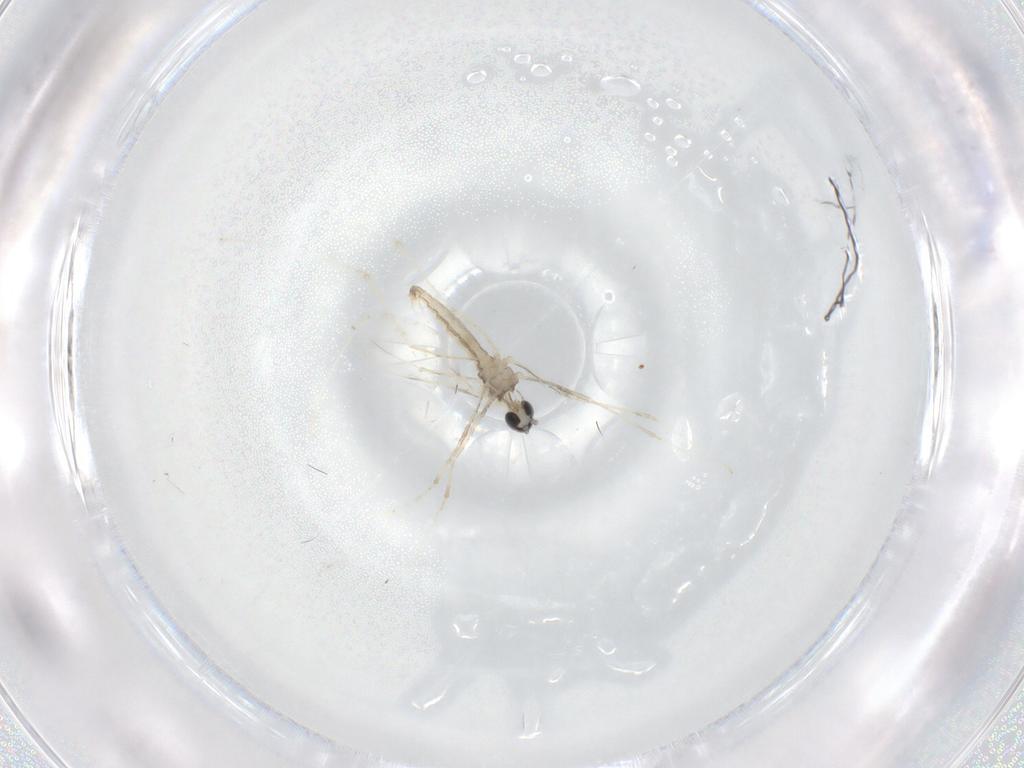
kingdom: Animalia
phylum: Arthropoda
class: Insecta
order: Diptera
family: Cecidomyiidae
